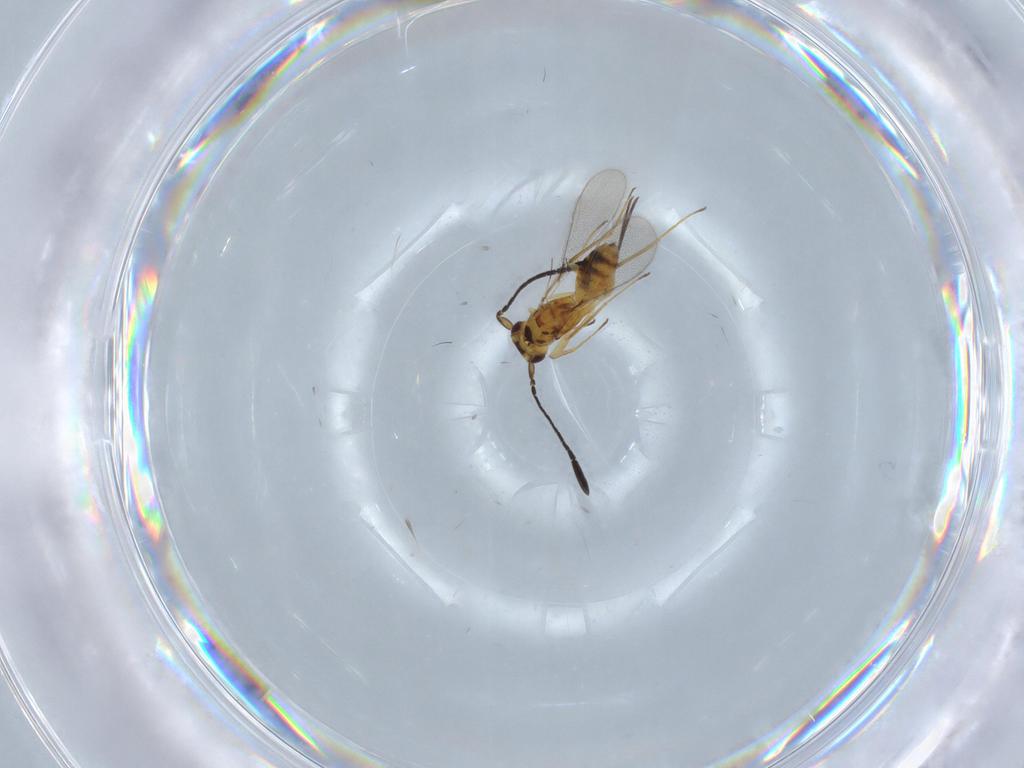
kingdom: Animalia
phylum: Arthropoda
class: Insecta
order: Hymenoptera
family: Mymaridae
